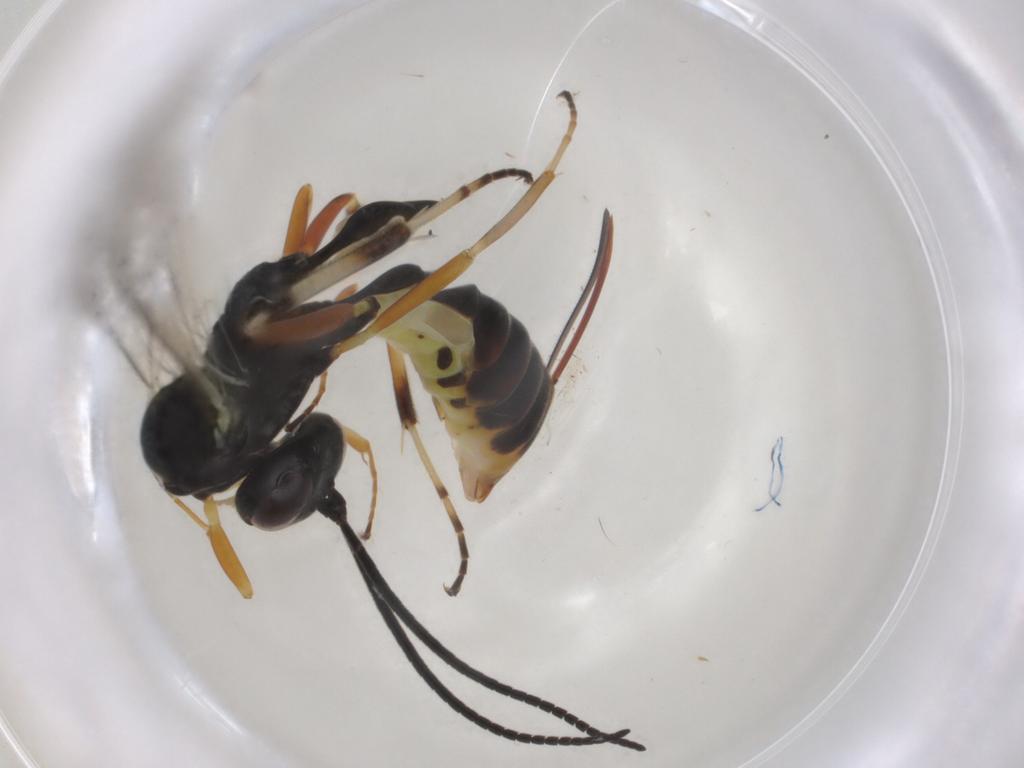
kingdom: Animalia
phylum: Arthropoda
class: Insecta
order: Hymenoptera
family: Ichneumonidae
